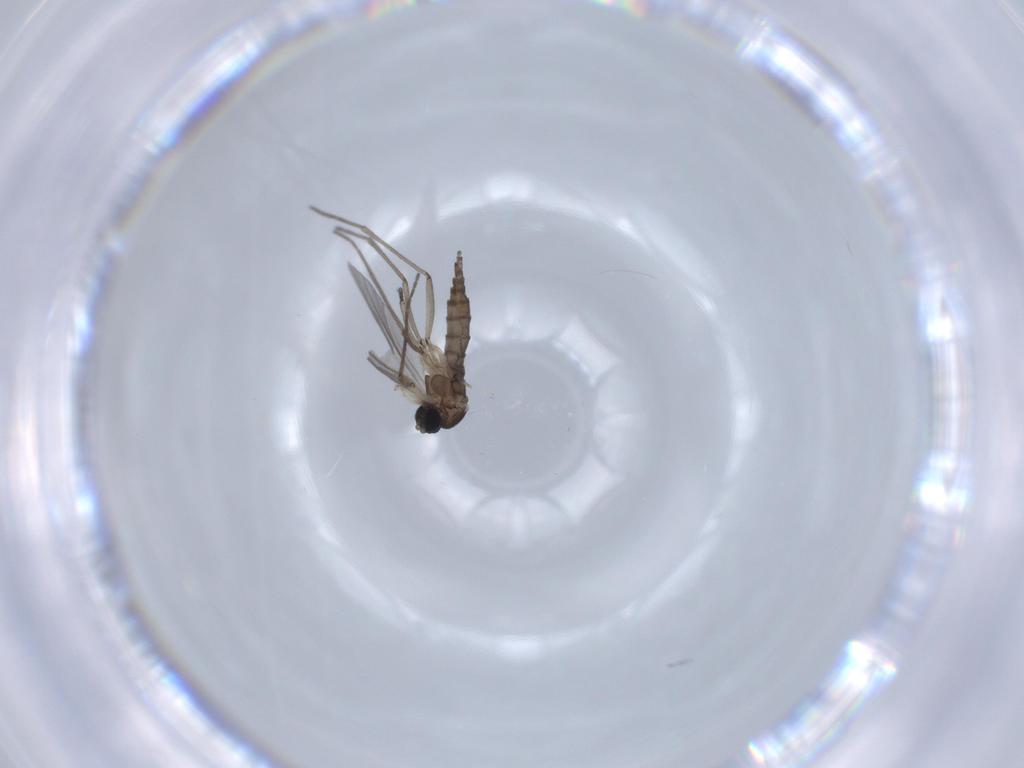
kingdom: Animalia
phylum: Arthropoda
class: Insecta
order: Diptera
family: Sciaridae
